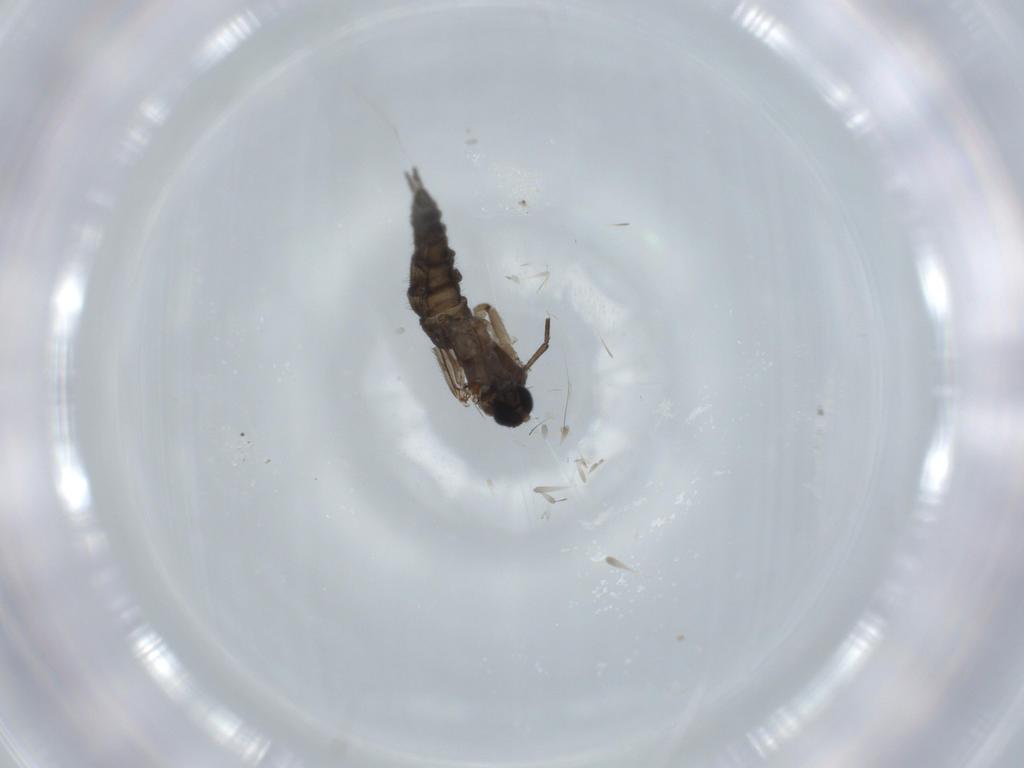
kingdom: Animalia
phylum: Arthropoda
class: Insecta
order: Diptera
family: Sciaridae
